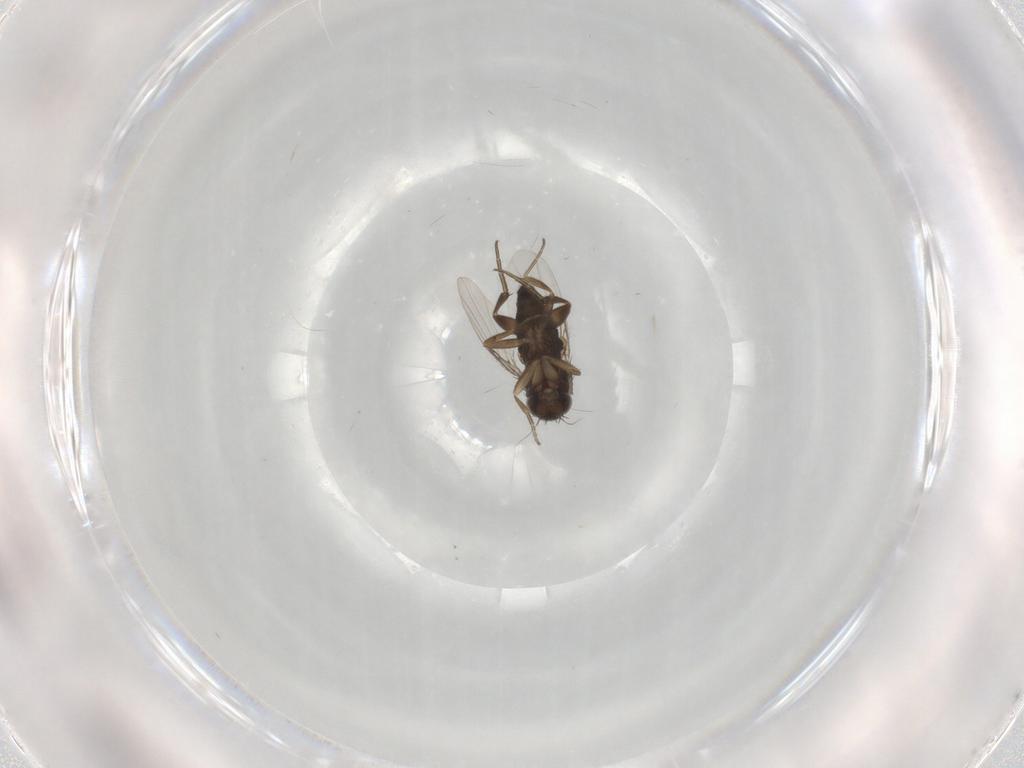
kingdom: Animalia
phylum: Arthropoda
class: Insecta
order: Diptera
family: Phoridae
